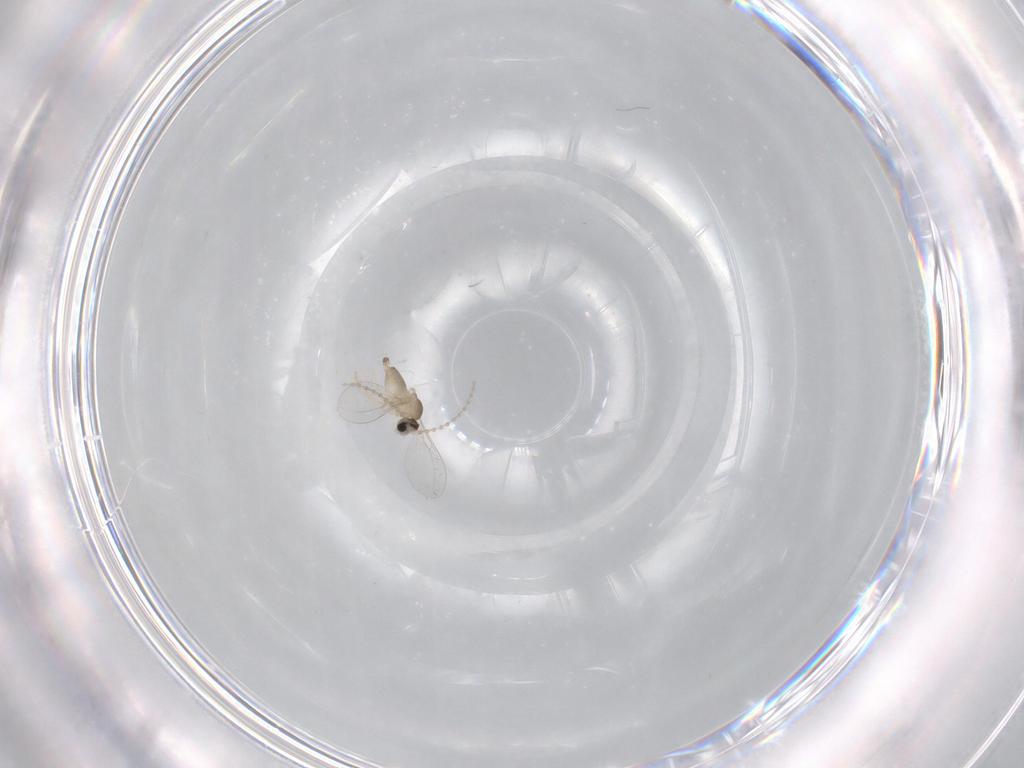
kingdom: Animalia
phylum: Arthropoda
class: Insecta
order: Diptera
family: Cecidomyiidae
